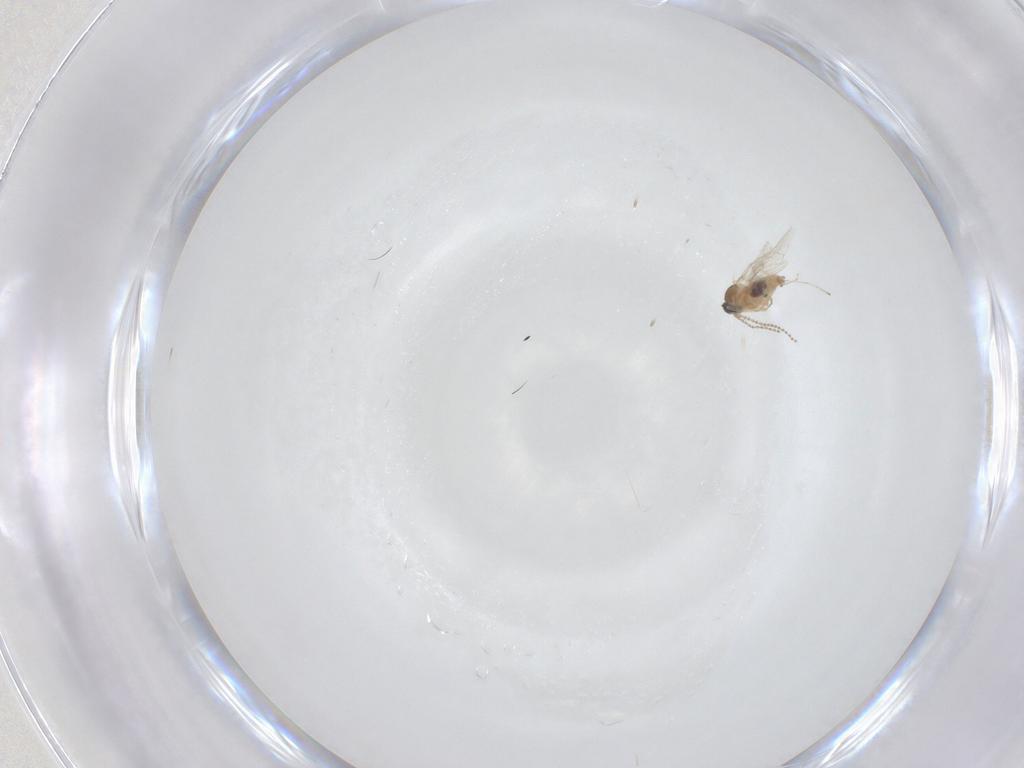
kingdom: Animalia
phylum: Arthropoda
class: Insecta
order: Diptera
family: Cecidomyiidae
